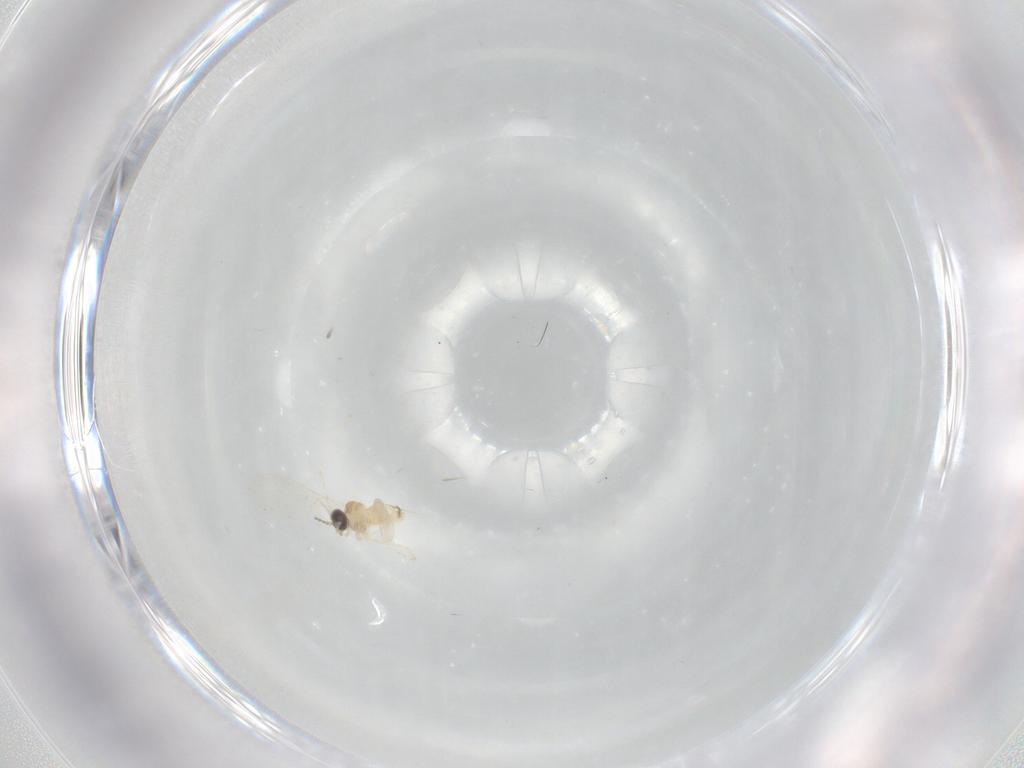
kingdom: Animalia
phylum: Arthropoda
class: Insecta
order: Diptera
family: Cecidomyiidae
